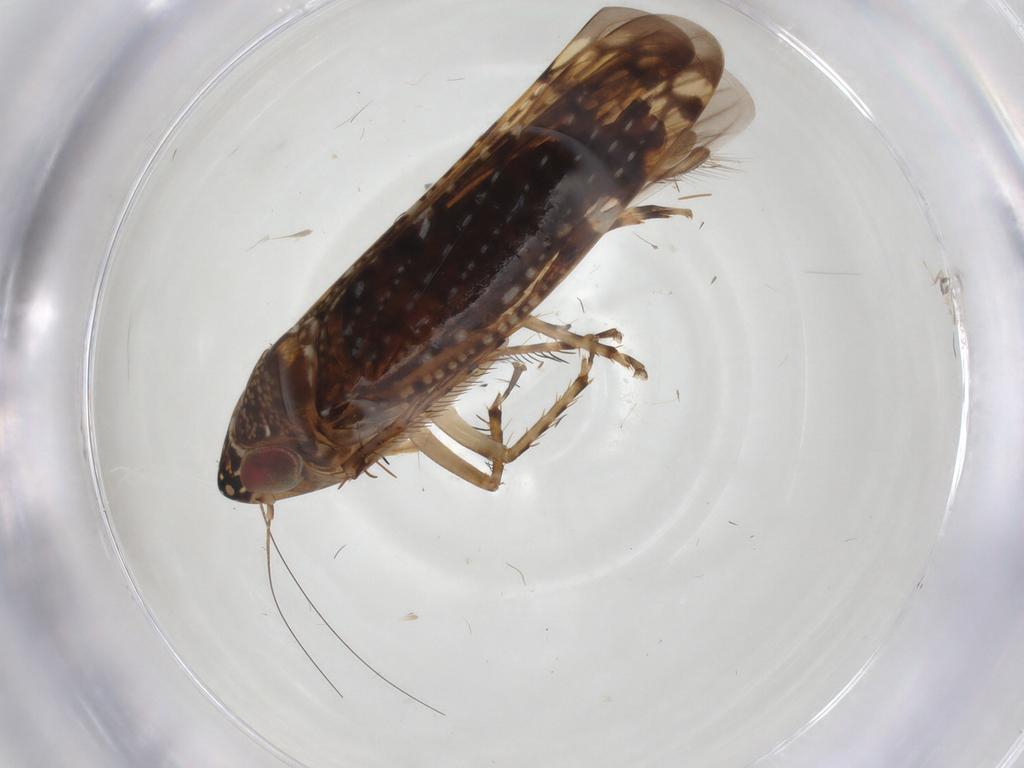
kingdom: Animalia
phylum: Arthropoda
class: Insecta
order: Hemiptera
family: Cicadellidae
